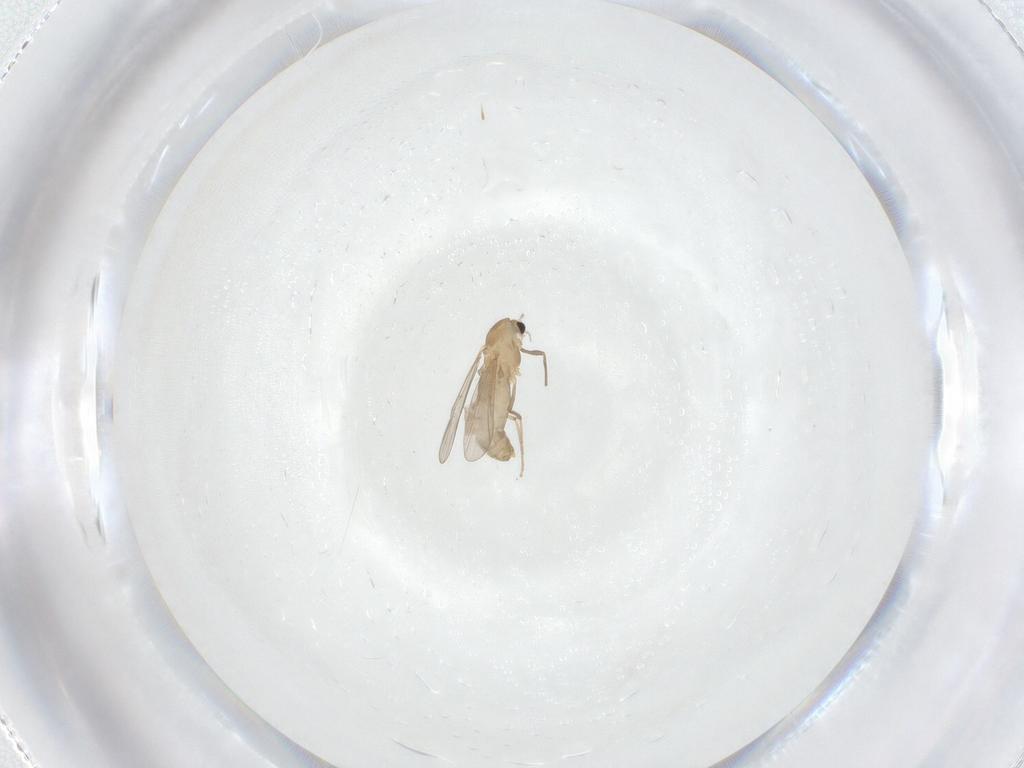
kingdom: Animalia
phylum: Arthropoda
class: Insecta
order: Diptera
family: Chironomidae
